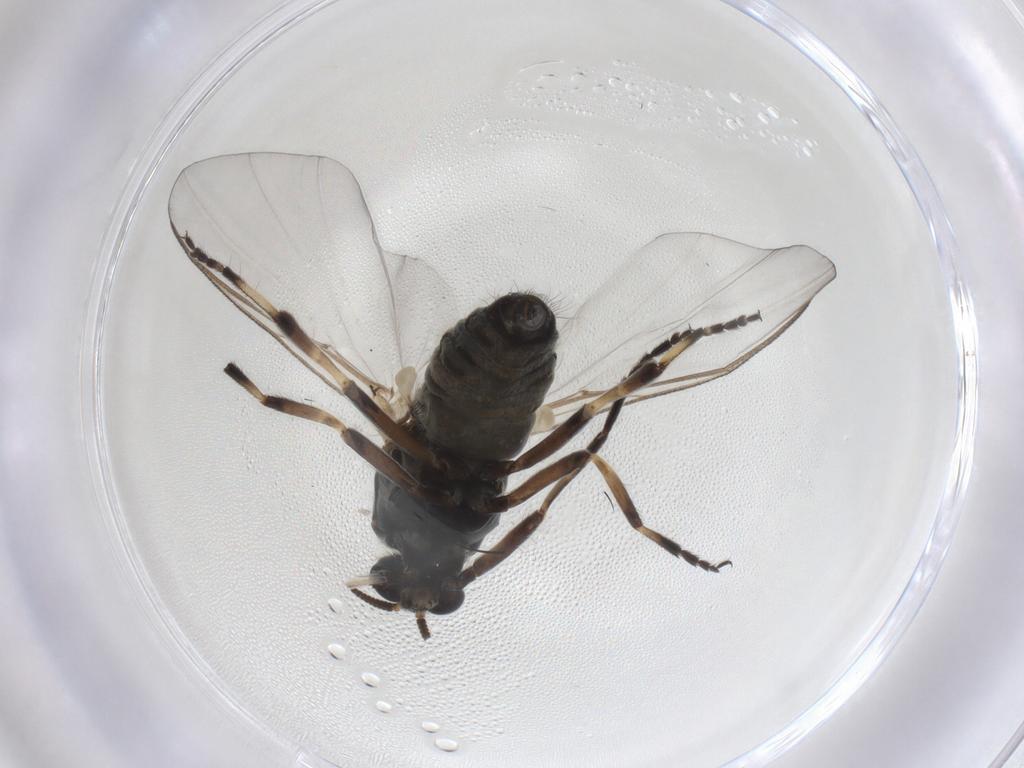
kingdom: Animalia
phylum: Arthropoda
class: Insecta
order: Diptera
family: Simuliidae
